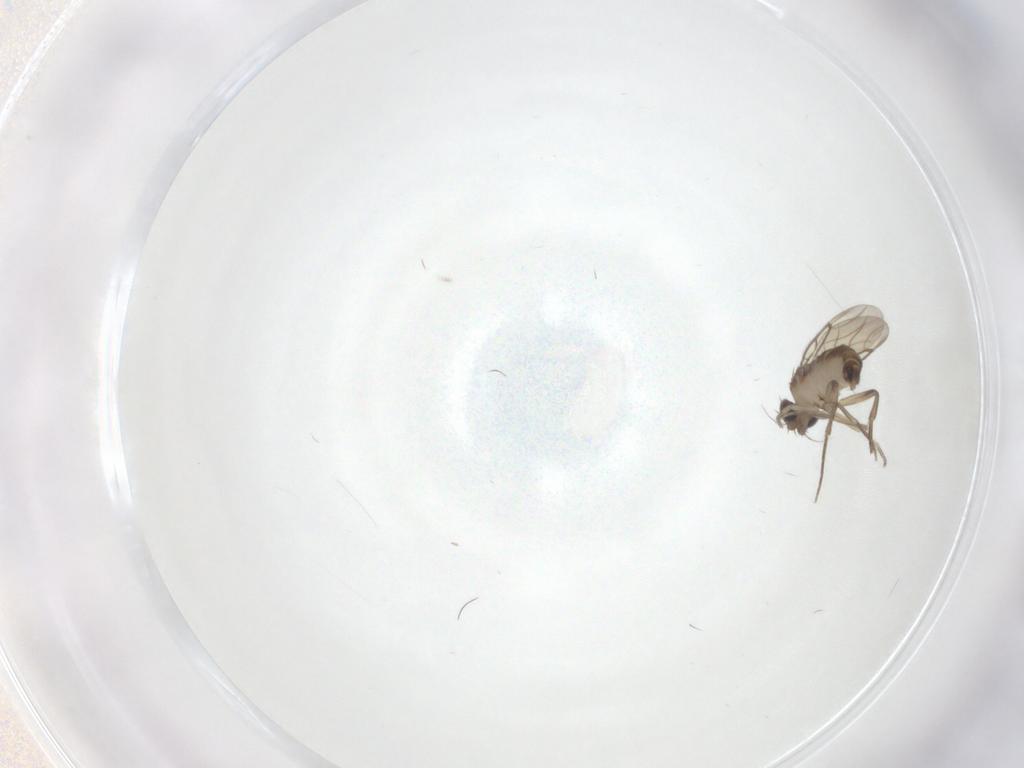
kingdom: Animalia
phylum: Arthropoda
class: Insecta
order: Diptera
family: Phoridae
